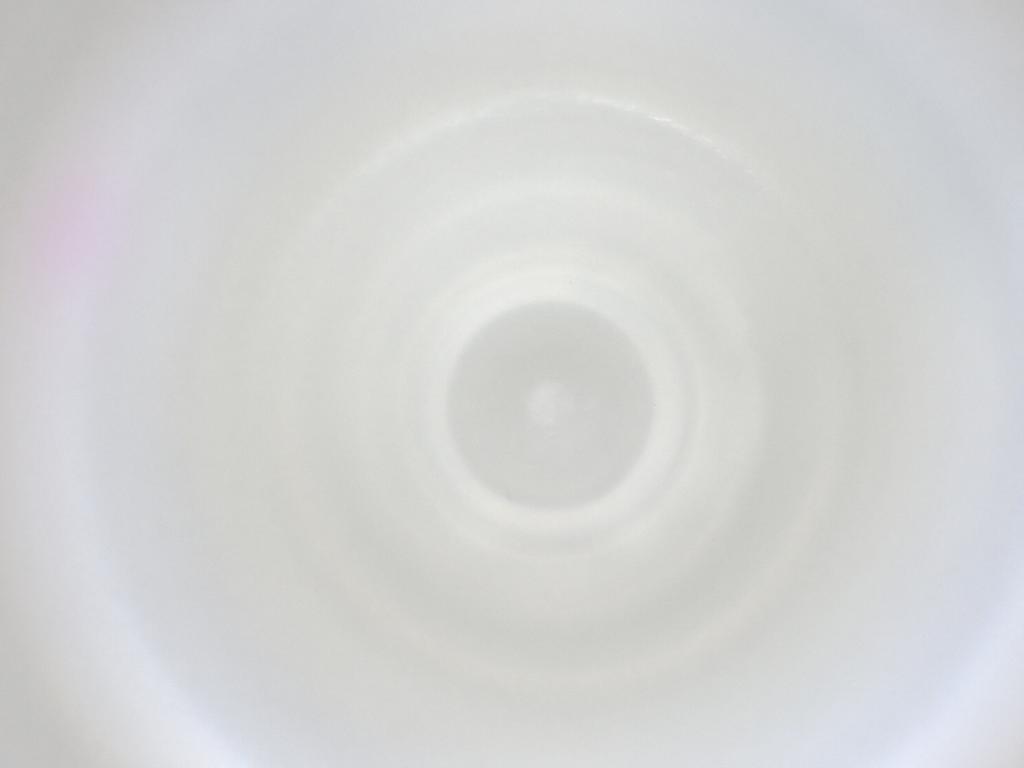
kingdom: Animalia
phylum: Arthropoda
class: Insecta
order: Diptera
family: Cecidomyiidae
